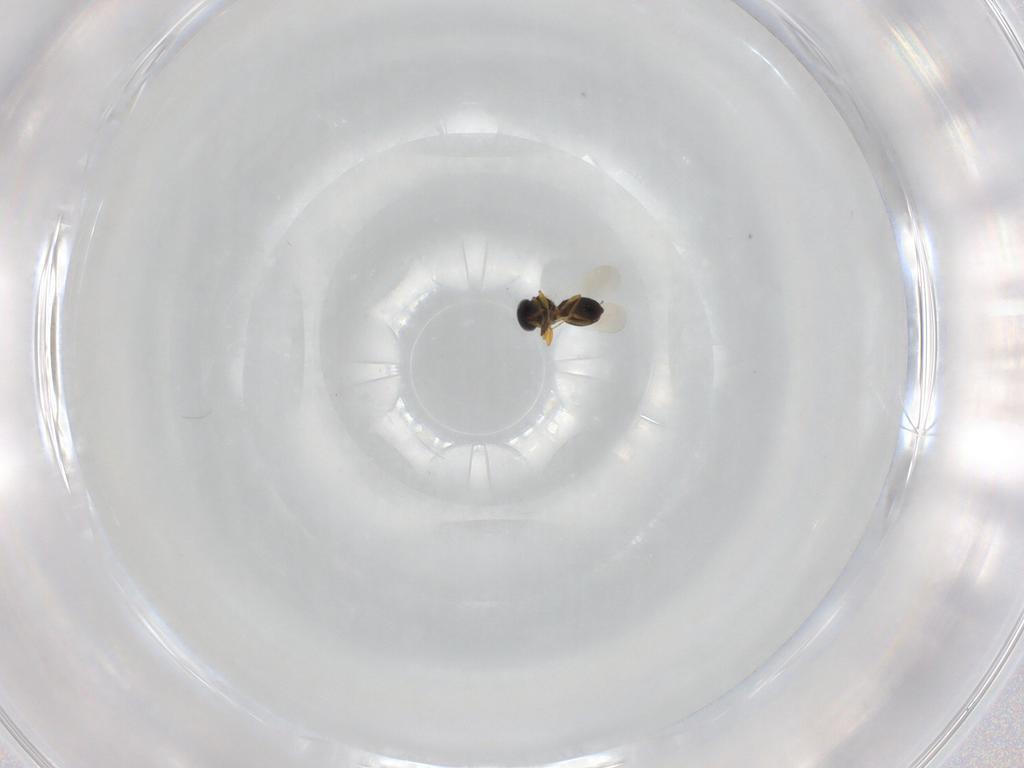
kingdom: Animalia
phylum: Arthropoda
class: Insecta
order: Hymenoptera
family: Platygastridae
